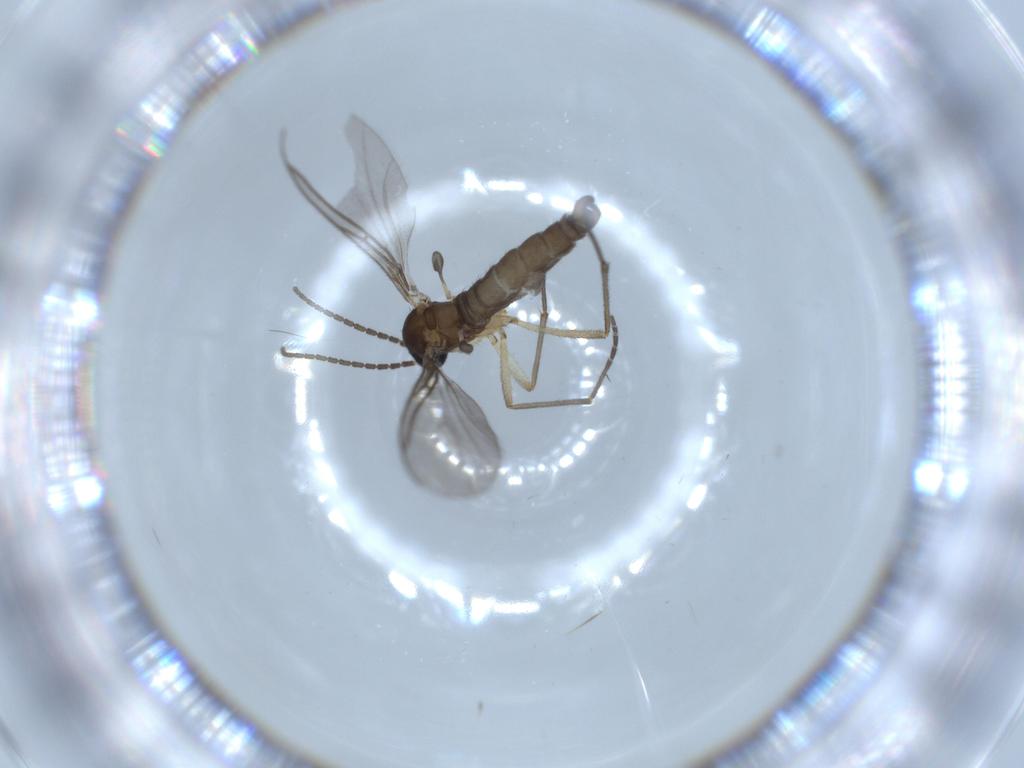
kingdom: Animalia
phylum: Arthropoda
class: Insecta
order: Diptera
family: Sciaridae
